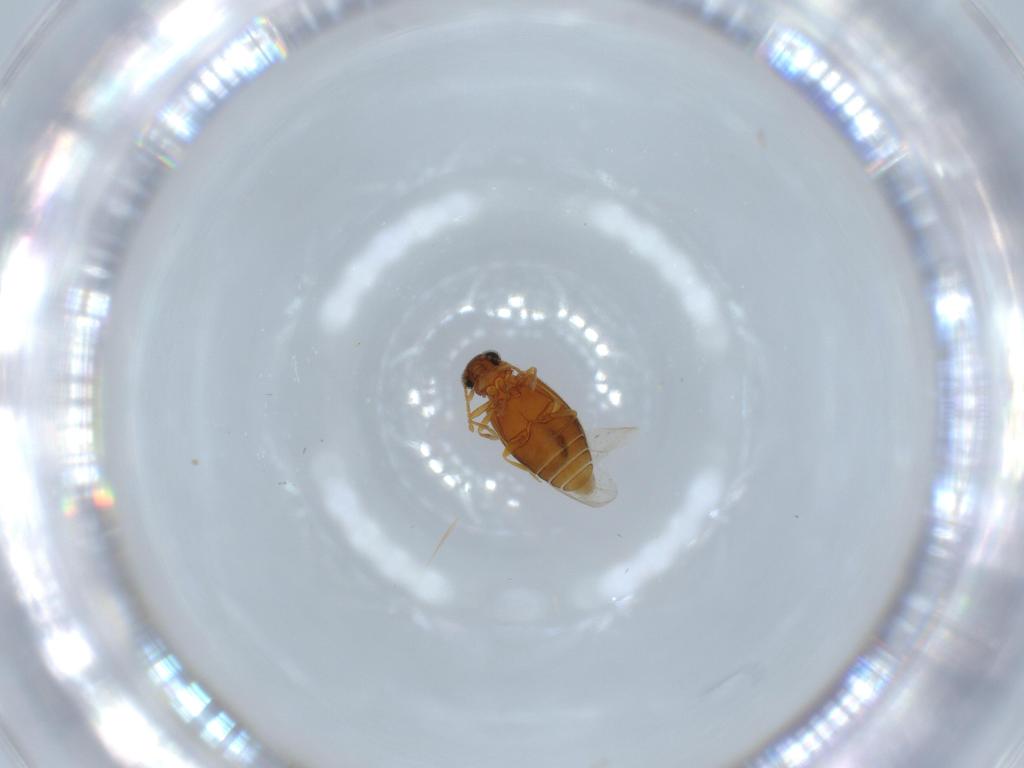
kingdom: Animalia
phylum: Arthropoda
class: Insecta
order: Coleoptera
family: Aderidae
